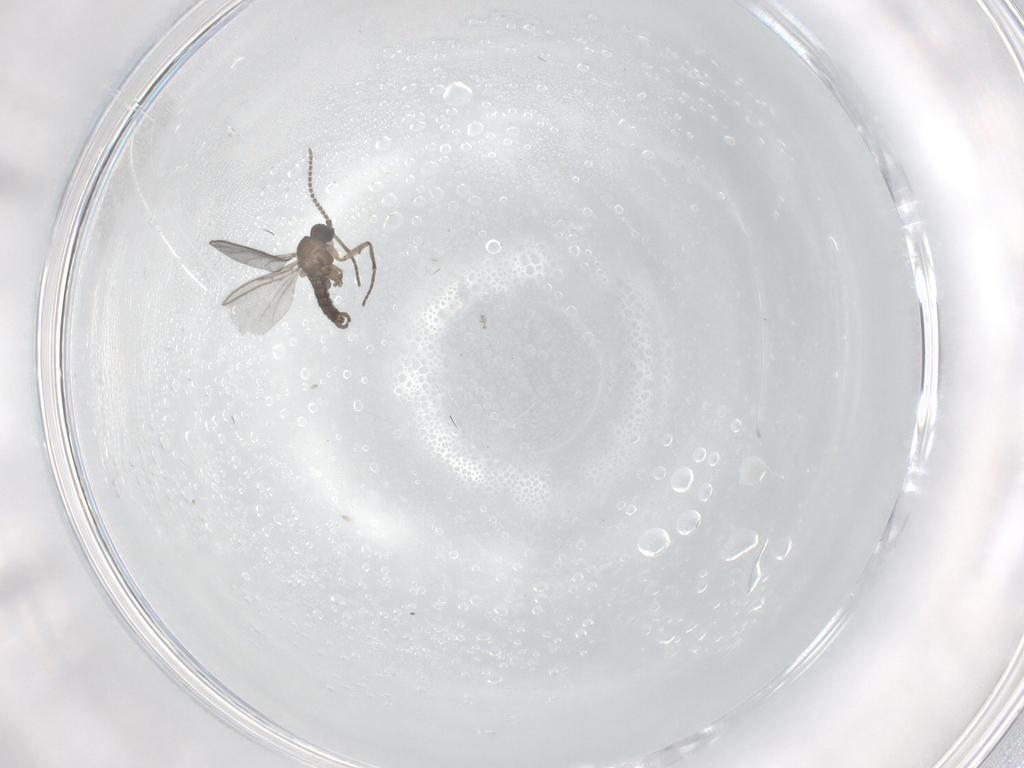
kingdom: Animalia
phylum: Arthropoda
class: Insecta
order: Diptera
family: Sciaridae
